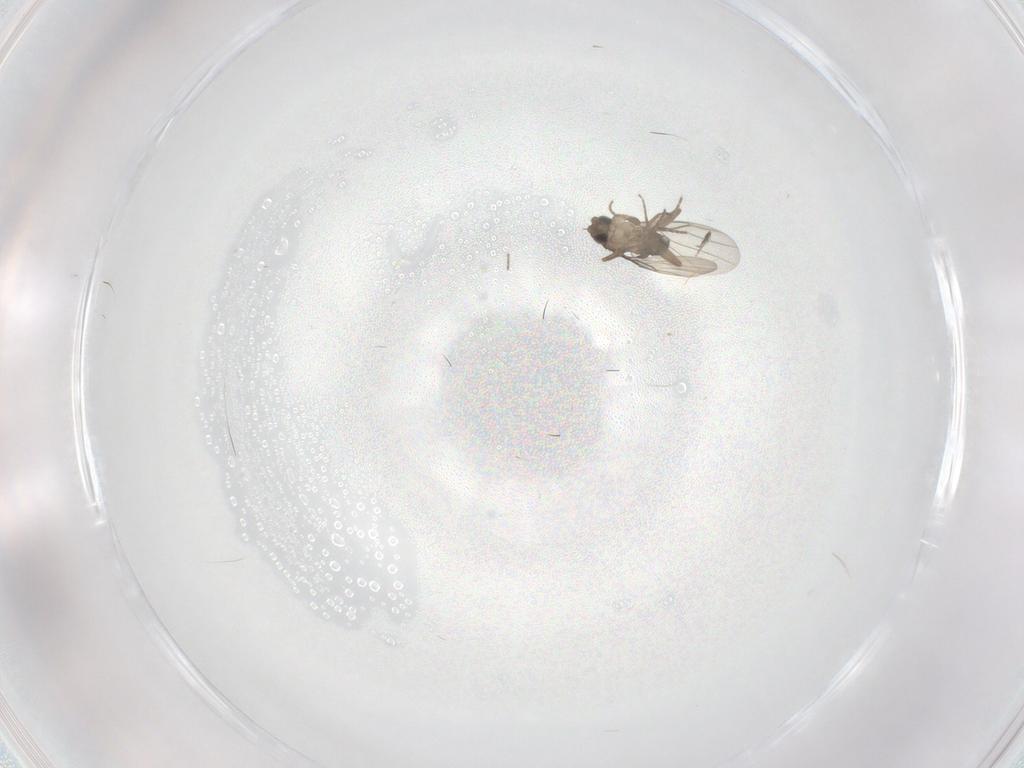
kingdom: Animalia
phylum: Arthropoda
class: Insecta
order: Diptera
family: Phoridae
